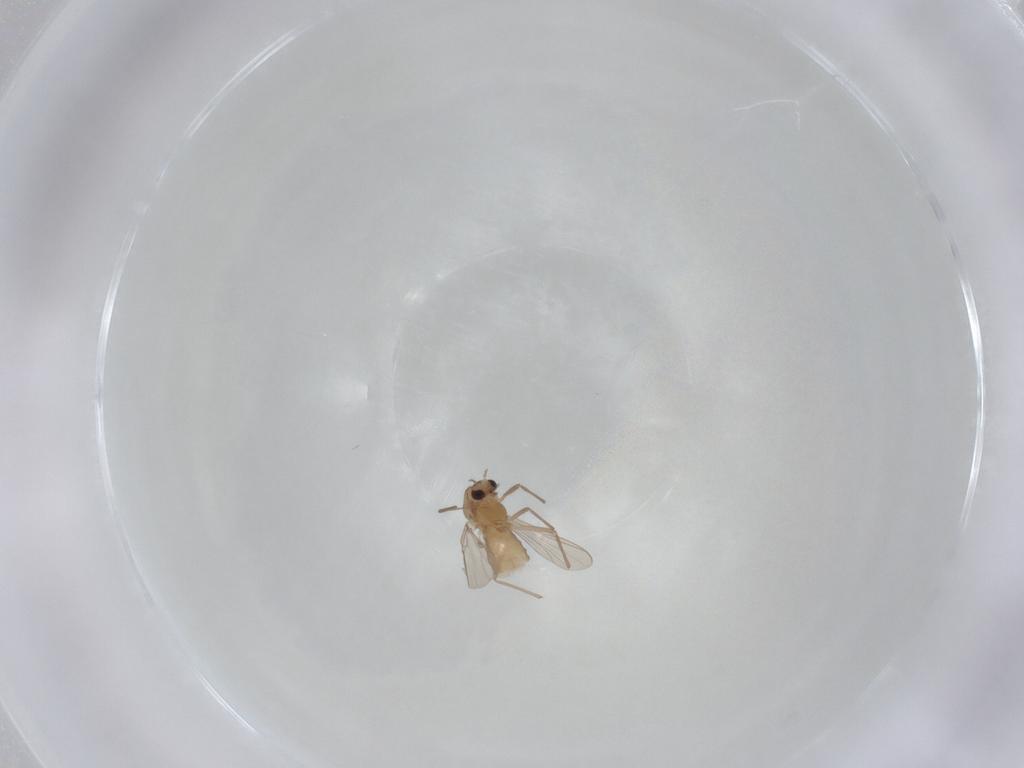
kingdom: Animalia
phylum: Arthropoda
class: Insecta
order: Diptera
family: Chironomidae
